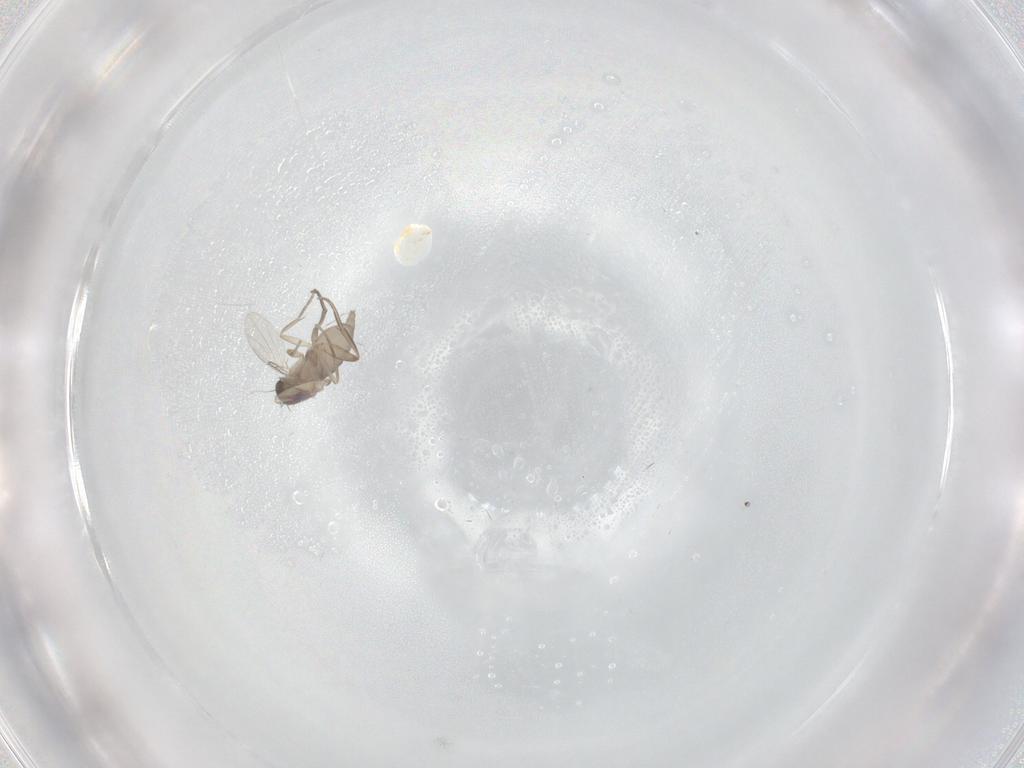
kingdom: Animalia
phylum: Arthropoda
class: Insecta
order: Diptera
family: Phoridae
